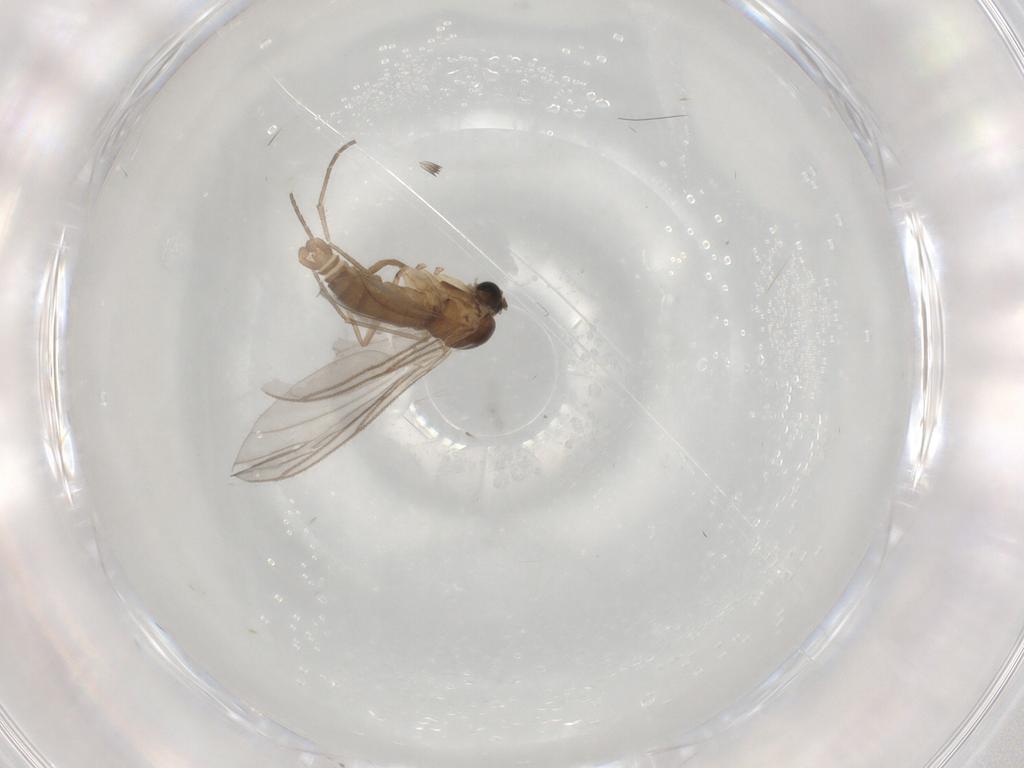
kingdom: Animalia
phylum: Arthropoda
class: Insecta
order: Diptera
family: Sciaridae
